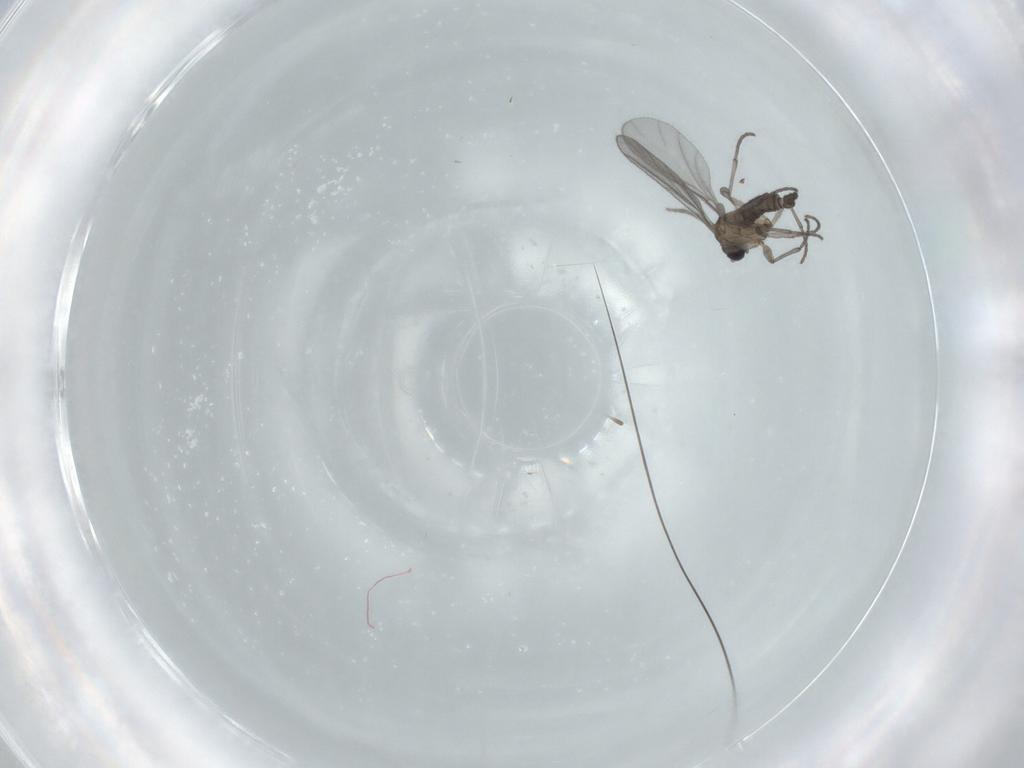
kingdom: Animalia
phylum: Arthropoda
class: Insecta
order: Diptera
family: Sciaridae
